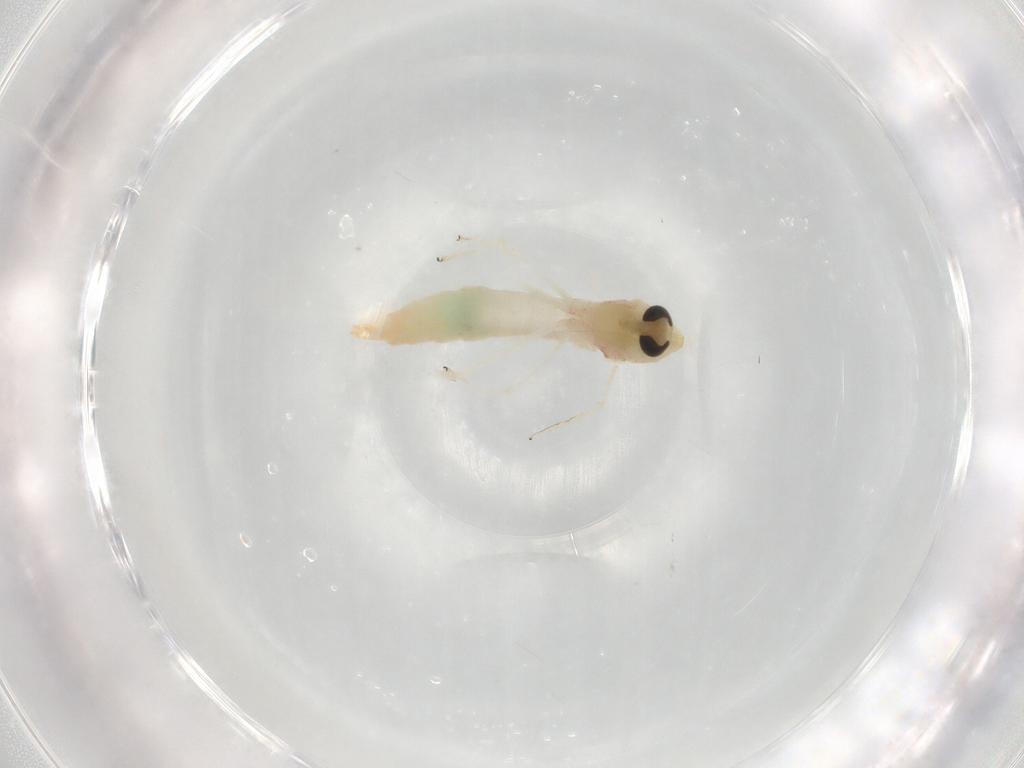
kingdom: Animalia
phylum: Arthropoda
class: Insecta
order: Diptera
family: Chironomidae
